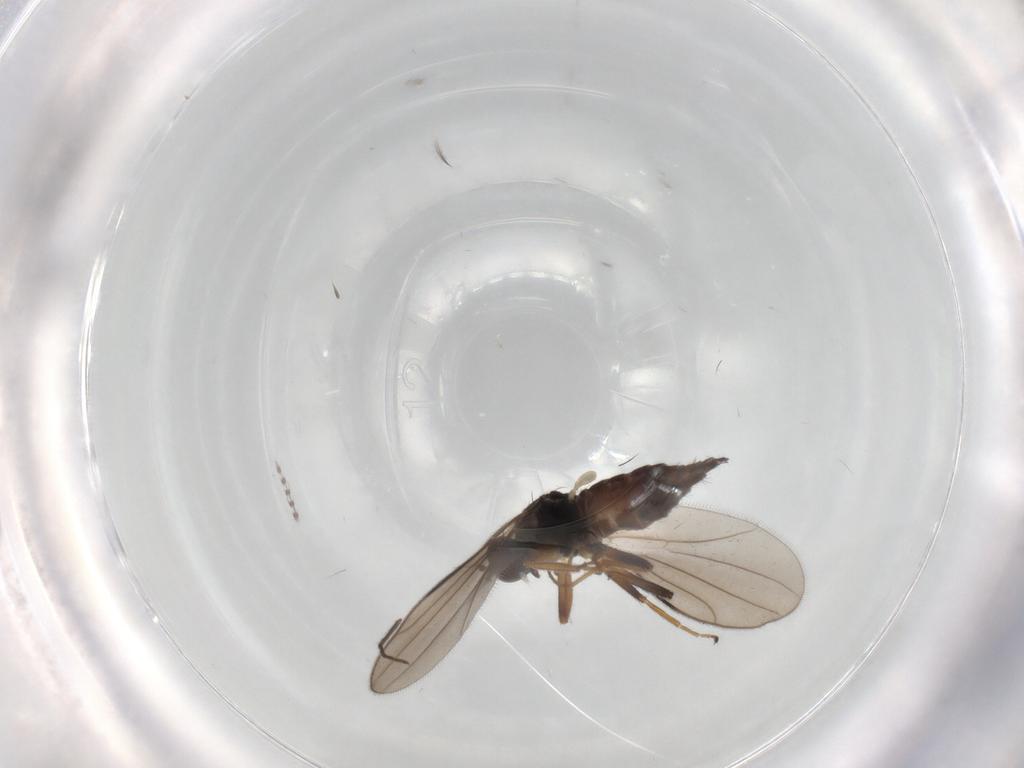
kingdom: Animalia
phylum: Arthropoda
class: Insecta
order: Diptera
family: Hybotidae
